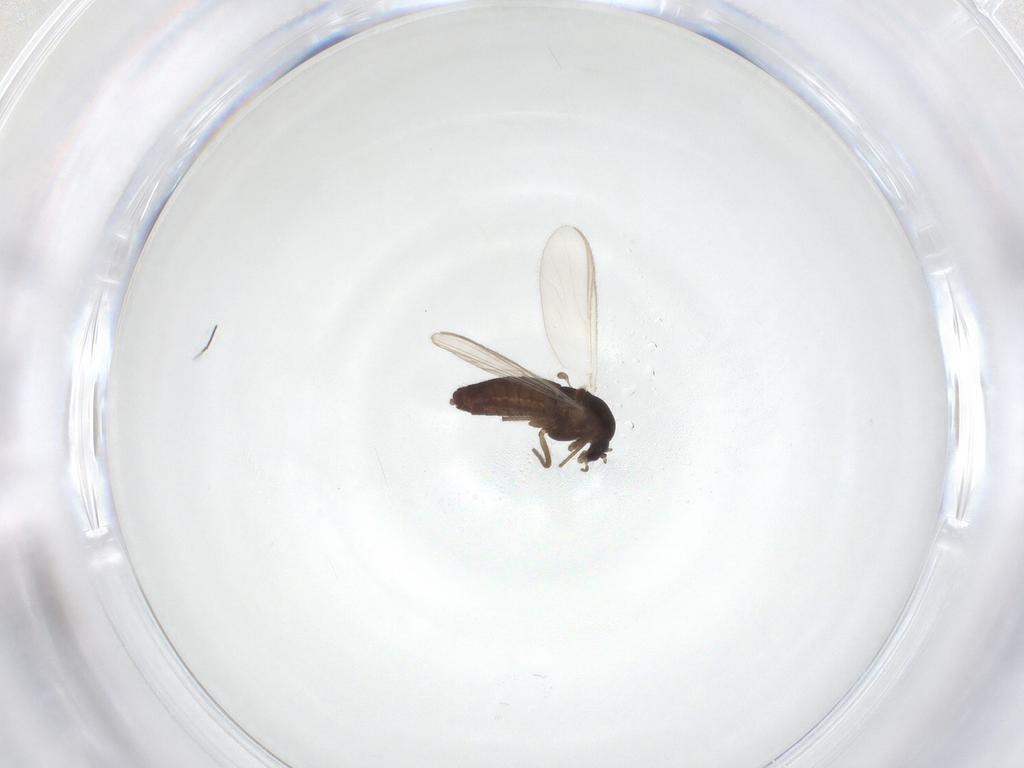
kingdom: Animalia
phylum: Arthropoda
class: Insecta
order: Diptera
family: Chironomidae
